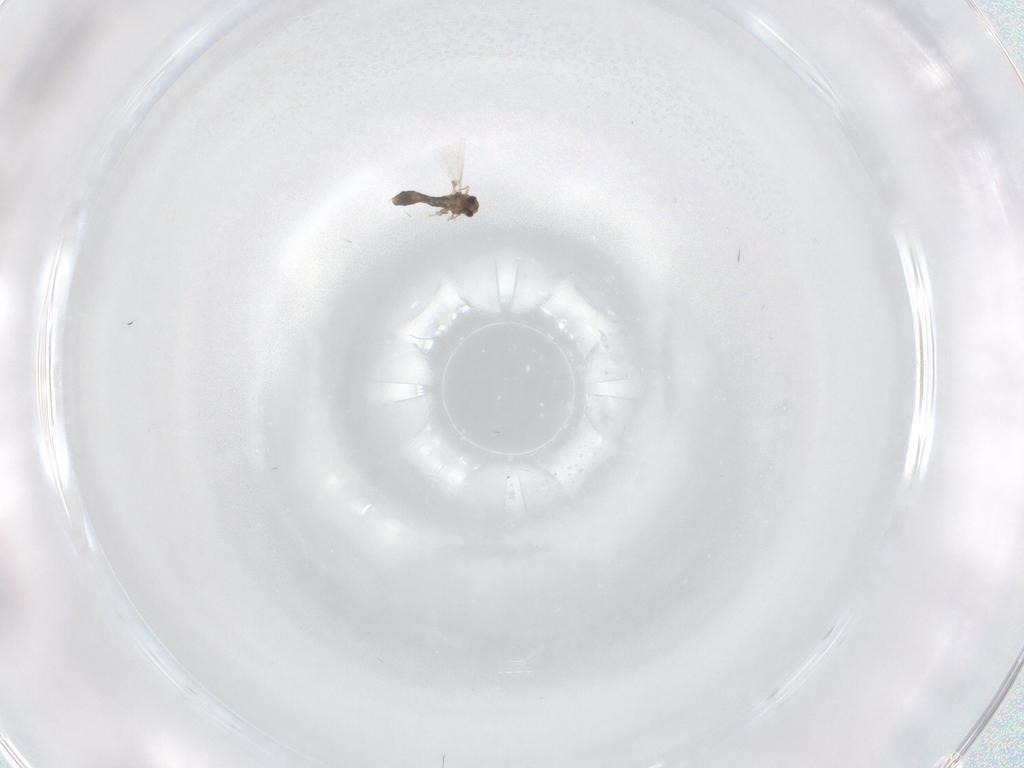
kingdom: Animalia
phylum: Arthropoda
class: Insecta
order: Diptera
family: Chironomidae
